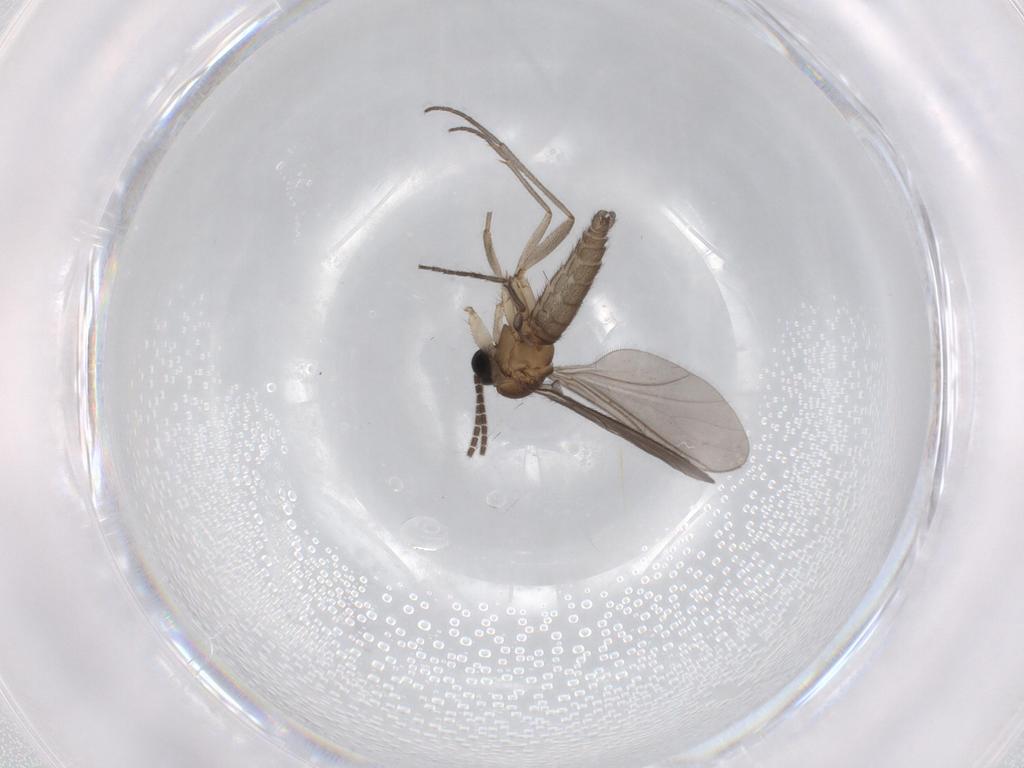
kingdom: Animalia
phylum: Arthropoda
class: Insecta
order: Diptera
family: Sciaridae
